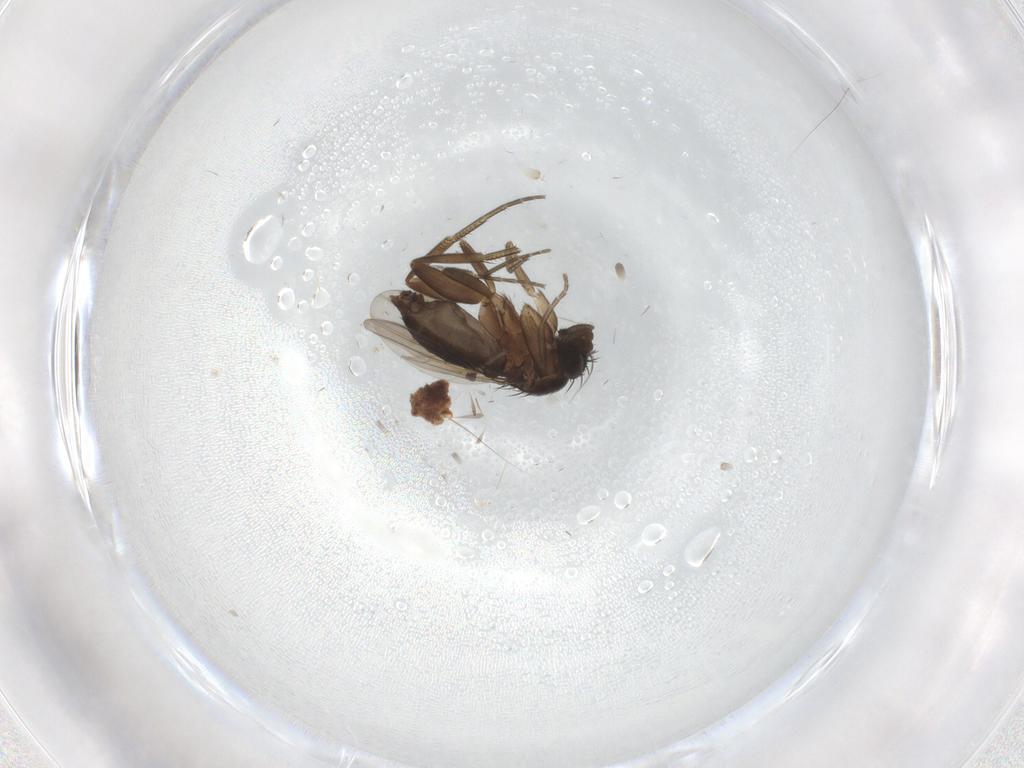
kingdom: Animalia
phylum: Arthropoda
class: Insecta
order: Diptera
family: Phoridae
